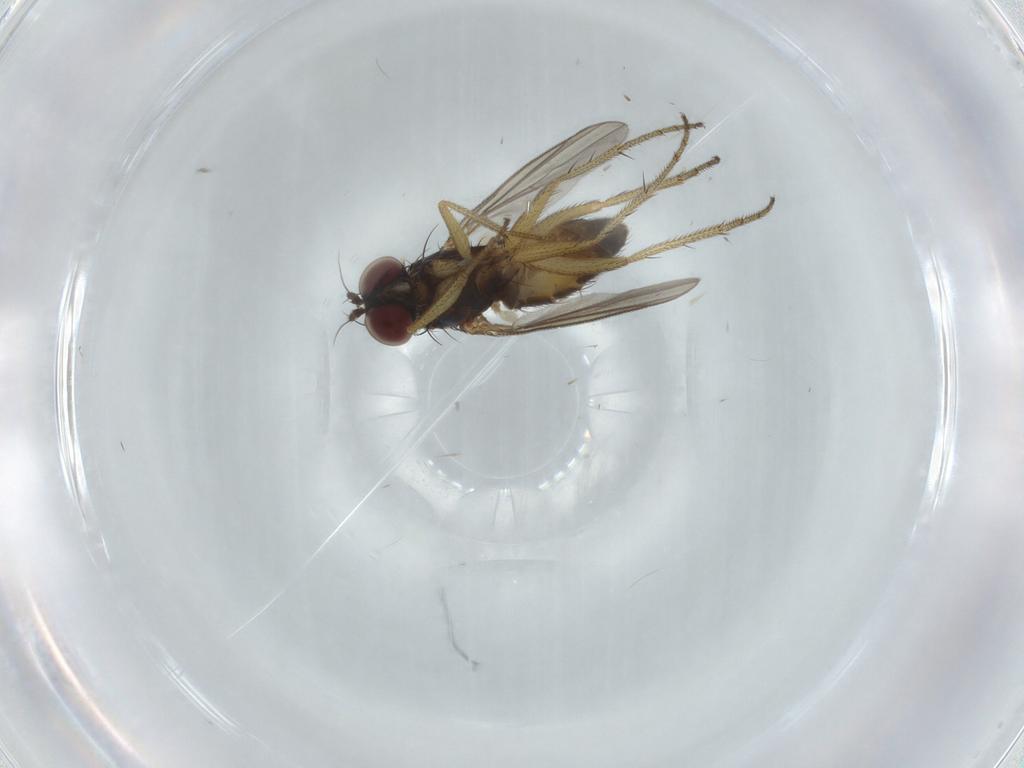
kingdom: Animalia
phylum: Arthropoda
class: Insecta
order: Diptera
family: Dolichopodidae
